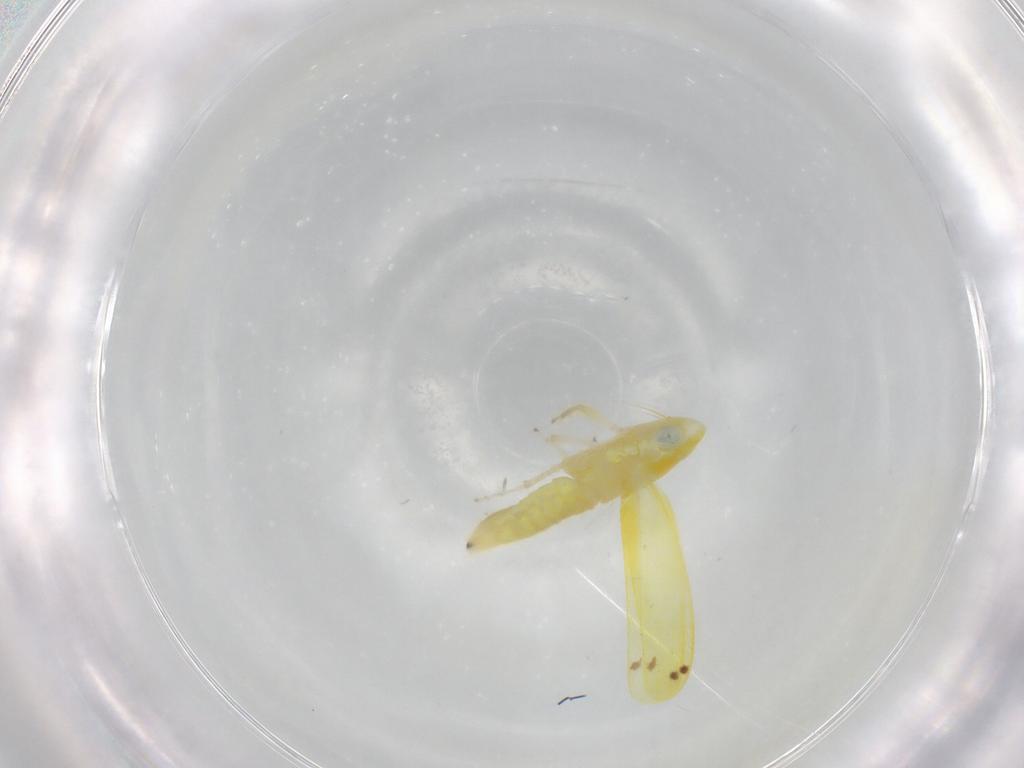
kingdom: Animalia
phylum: Arthropoda
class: Insecta
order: Hemiptera
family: Cicadellidae
